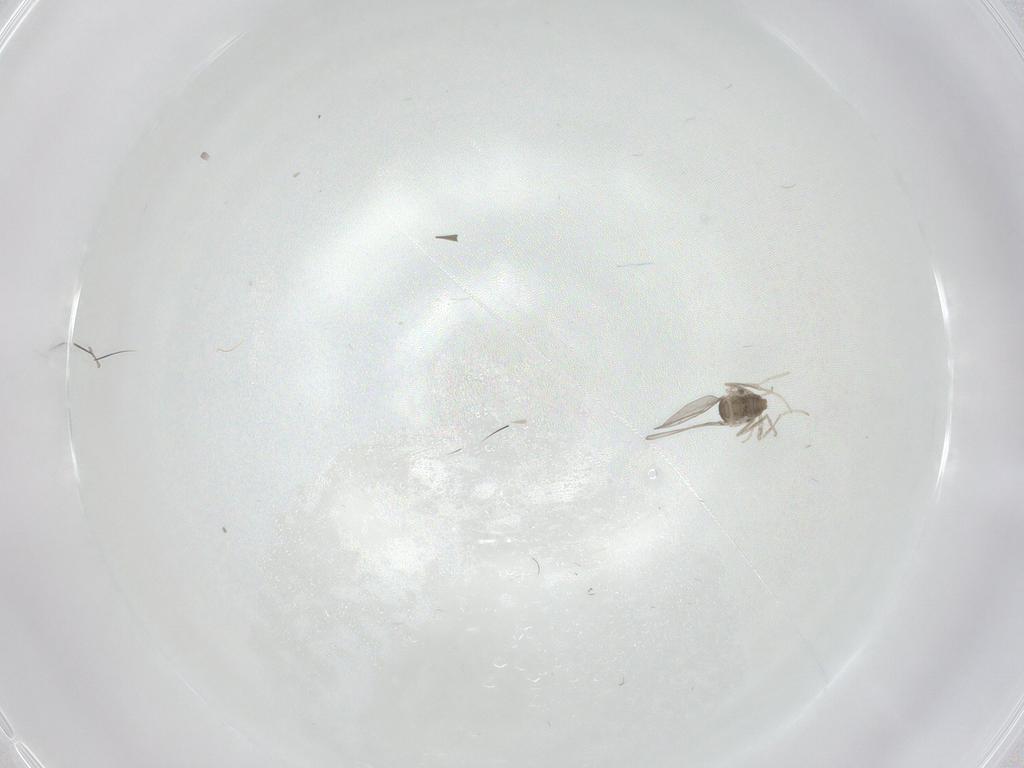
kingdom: Animalia
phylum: Arthropoda
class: Insecta
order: Diptera
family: Cecidomyiidae
